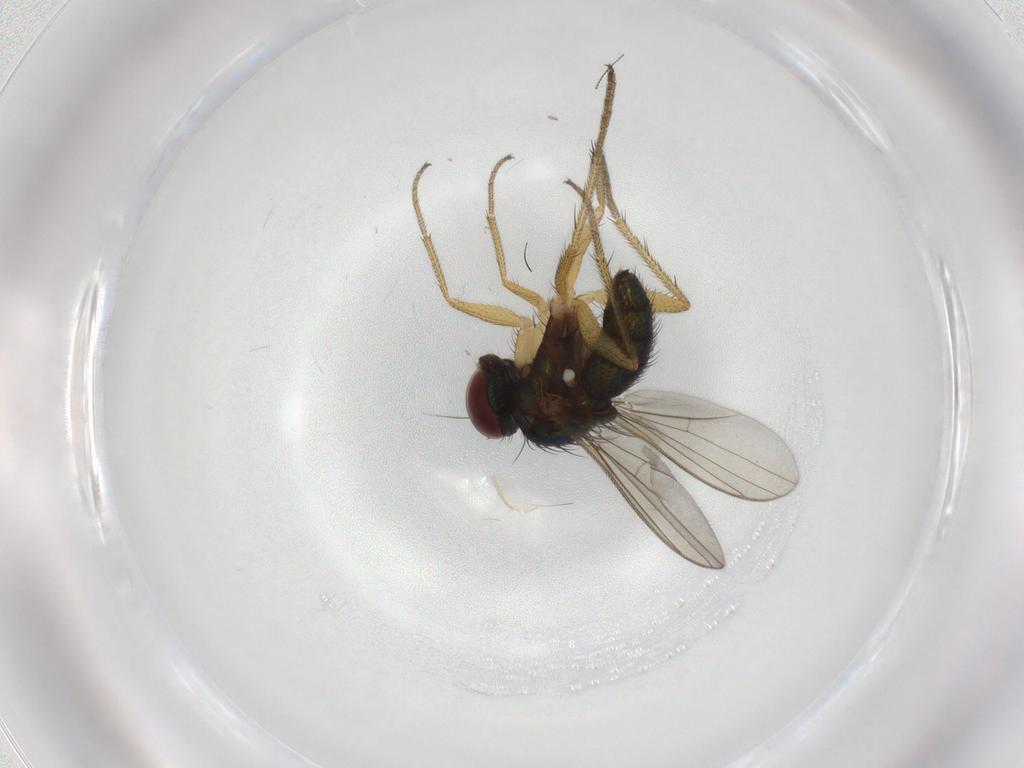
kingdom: Animalia
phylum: Arthropoda
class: Insecta
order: Diptera
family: Dolichopodidae
